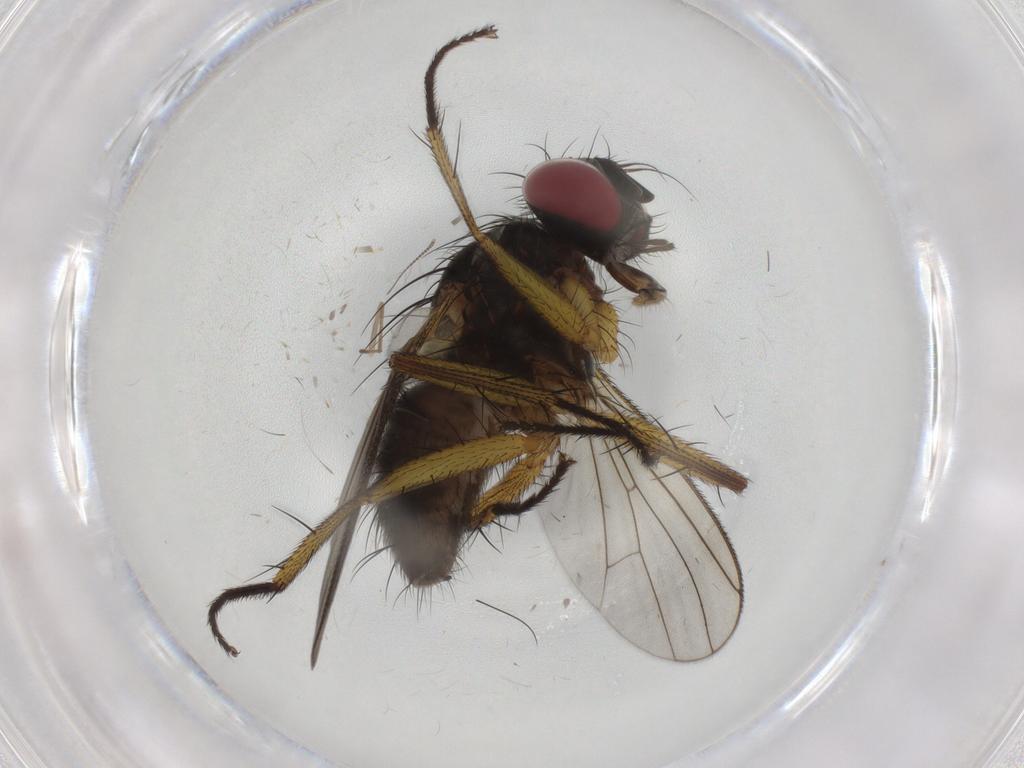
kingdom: Animalia
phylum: Arthropoda
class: Insecta
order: Diptera
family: Muscidae
